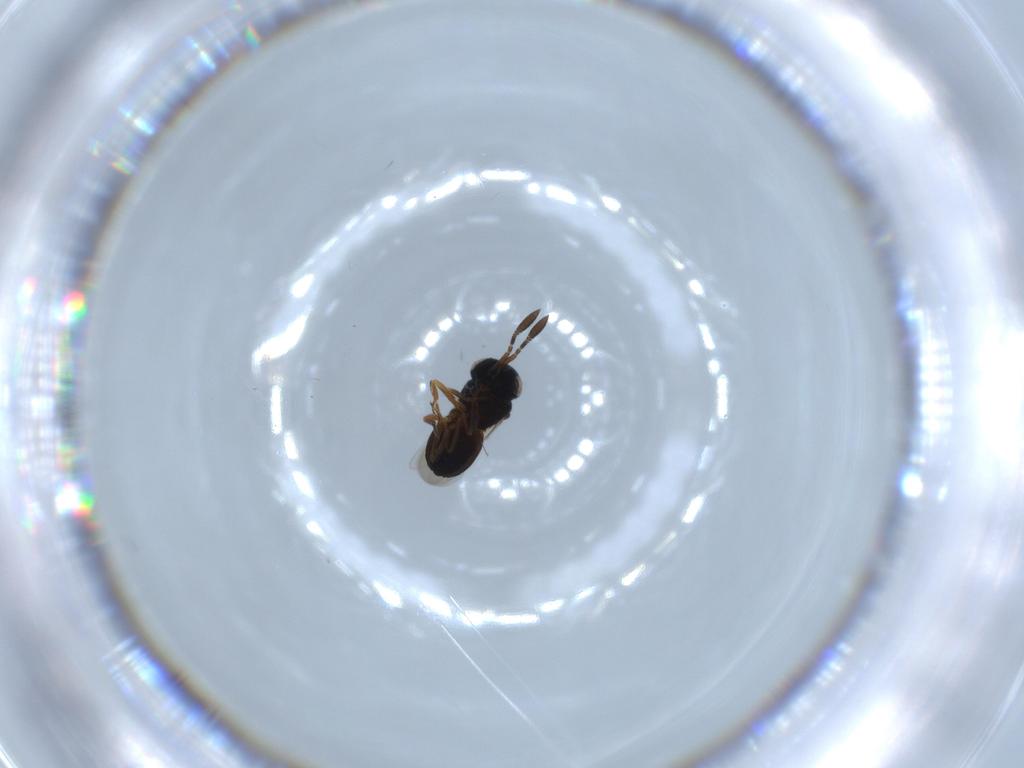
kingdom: Animalia
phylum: Arthropoda
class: Insecta
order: Hymenoptera
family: Scelionidae
